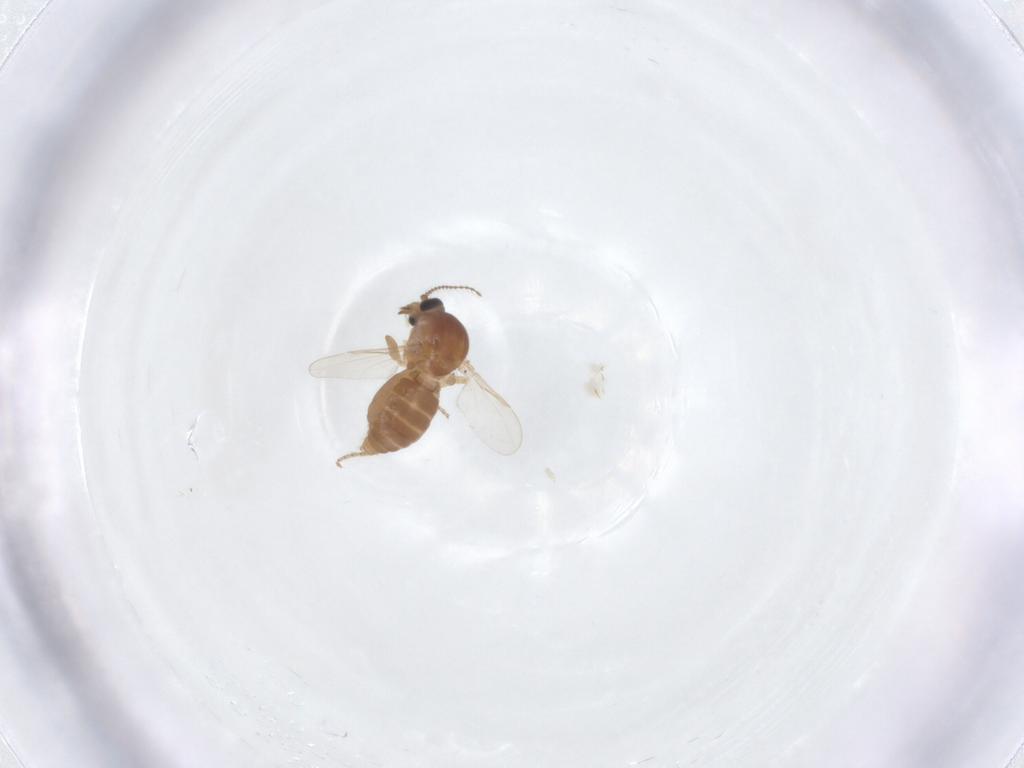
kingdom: Animalia
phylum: Arthropoda
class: Insecta
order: Diptera
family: Ceratopogonidae
